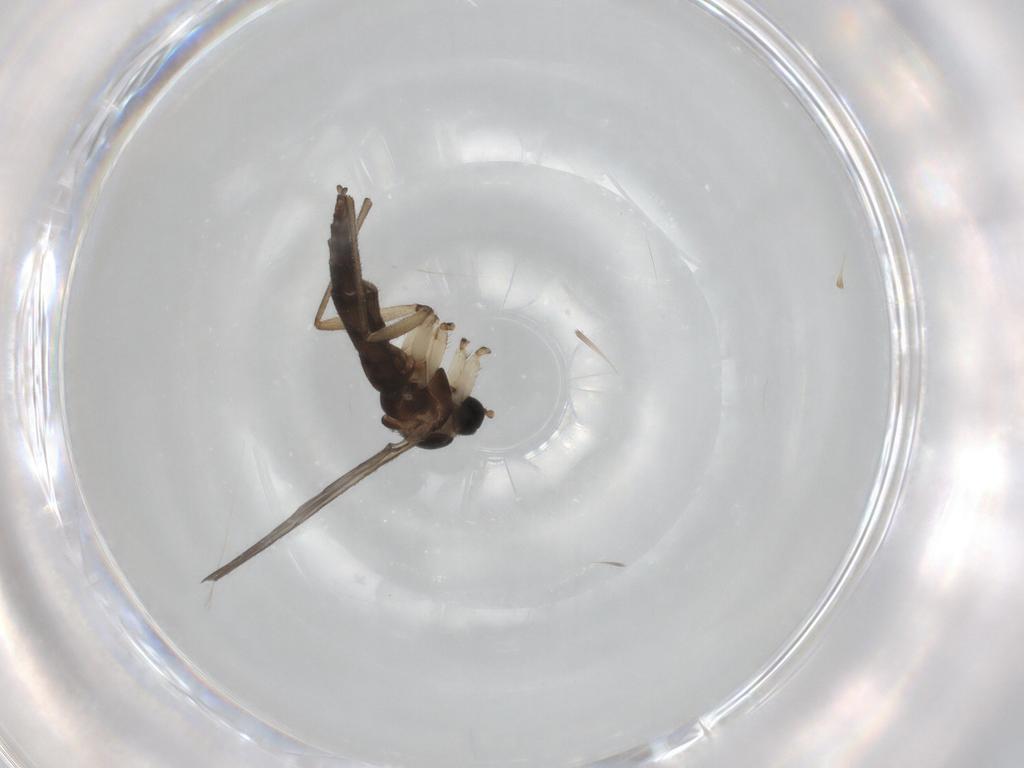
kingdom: Animalia
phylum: Arthropoda
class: Insecta
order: Diptera
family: Sciaridae
